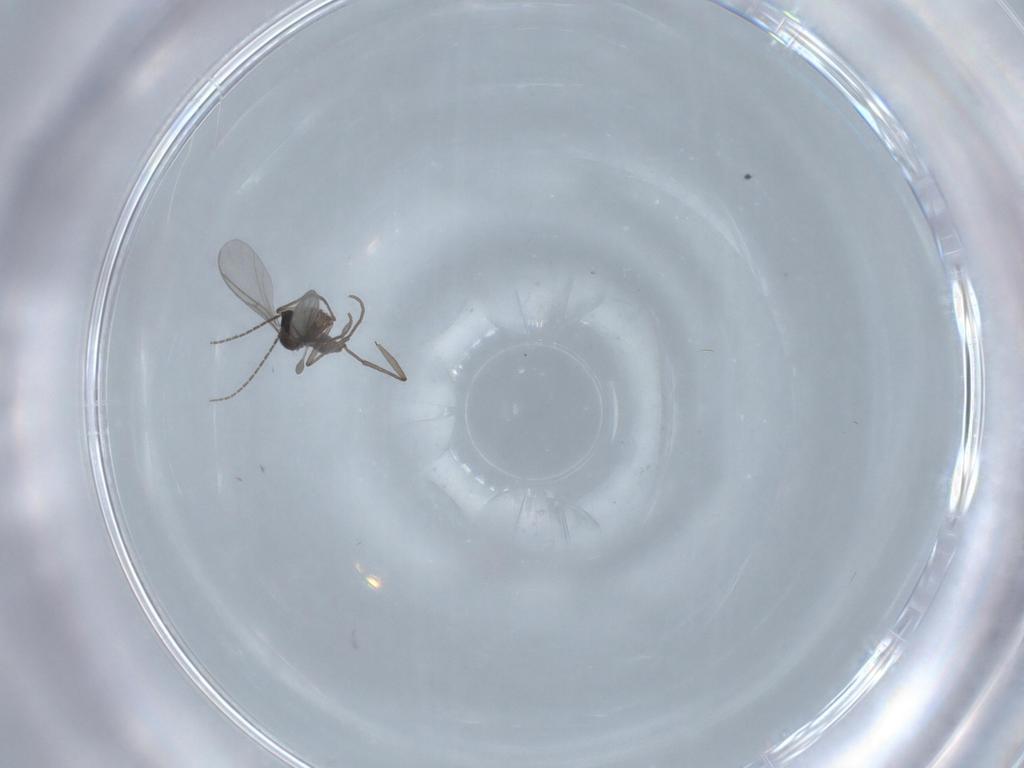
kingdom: Animalia
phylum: Arthropoda
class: Insecta
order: Diptera
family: Sciaridae
